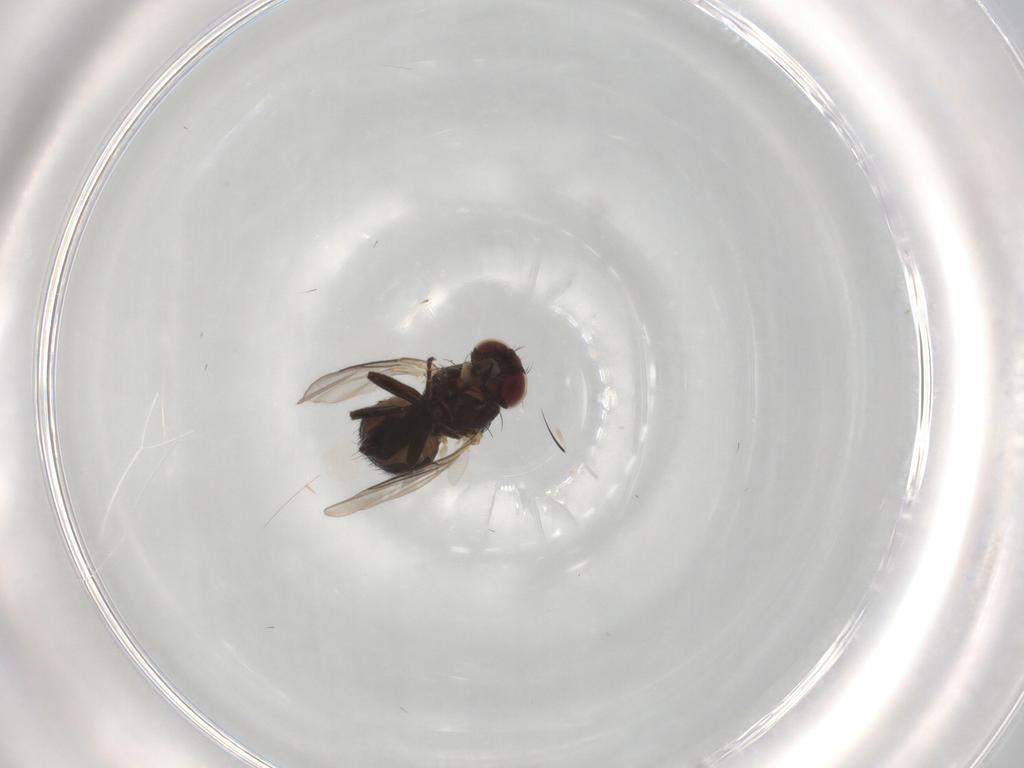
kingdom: Animalia
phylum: Arthropoda
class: Insecta
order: Diptera
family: Agromyzidae
